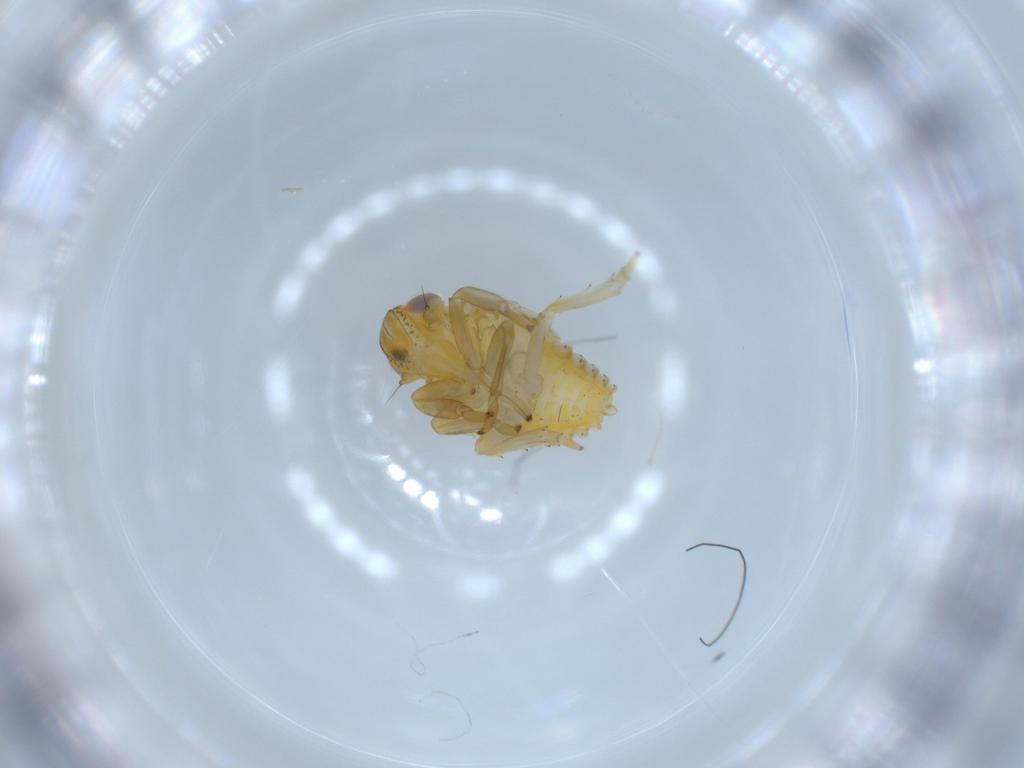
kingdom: Animalia
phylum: Arthropoda
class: Insecta
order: Hemiptera
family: Issidae
